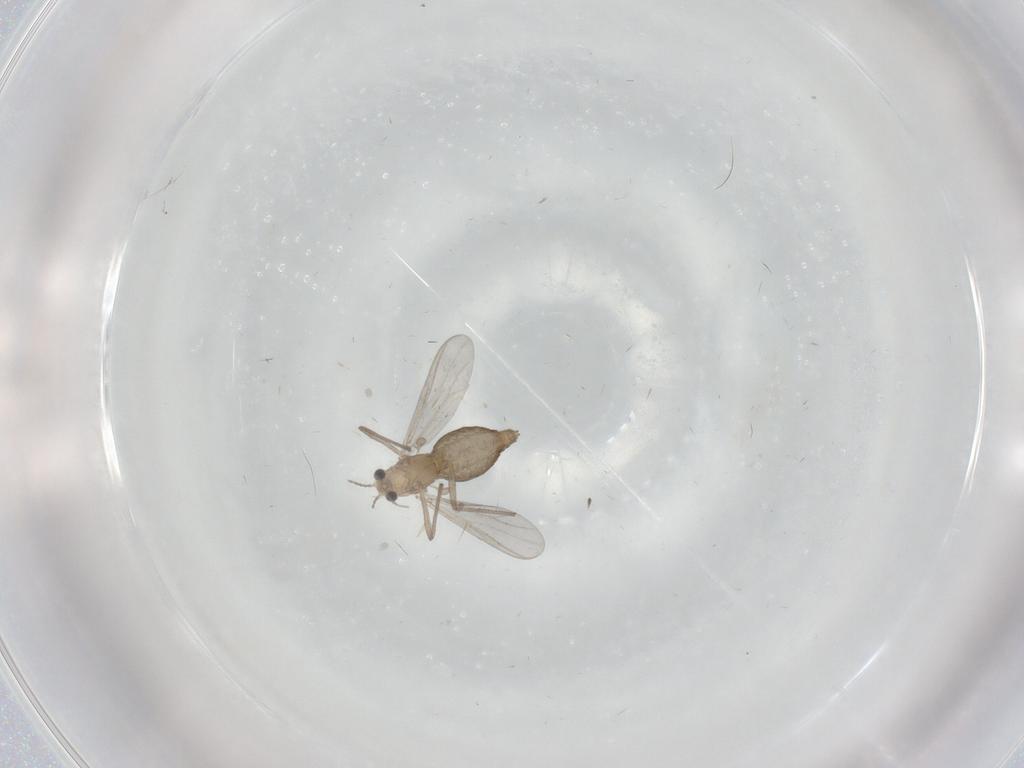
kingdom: Animalia
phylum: Arthropoda
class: Insecta
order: Diptera
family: Chironomidae
